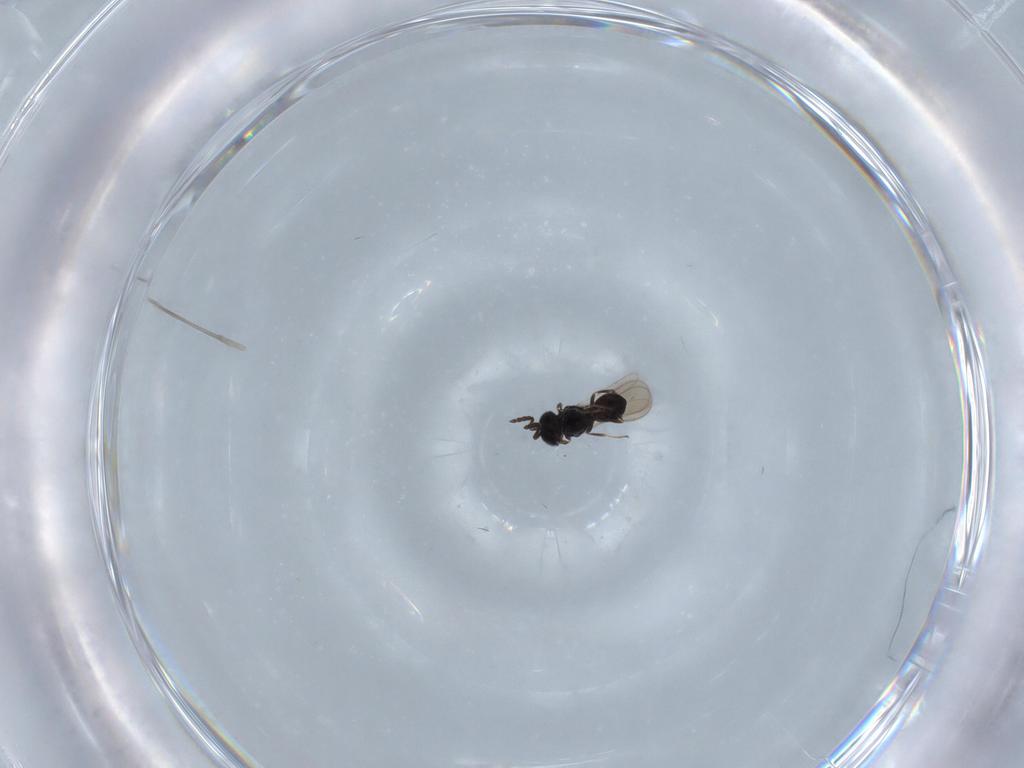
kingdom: Animalia
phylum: Arthropoda
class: Insecta
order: Hymenoptera
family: Scelionidae
